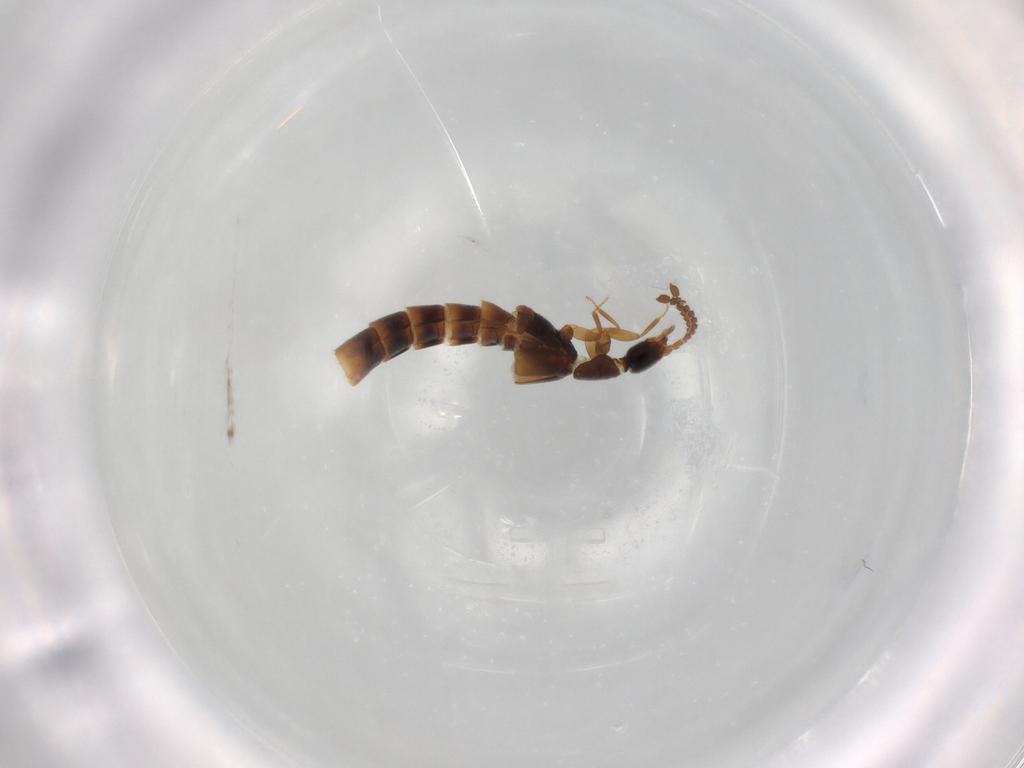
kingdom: Animalia
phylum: Arthropoda
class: Insecta
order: Coleoptera
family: Staphylinidae
